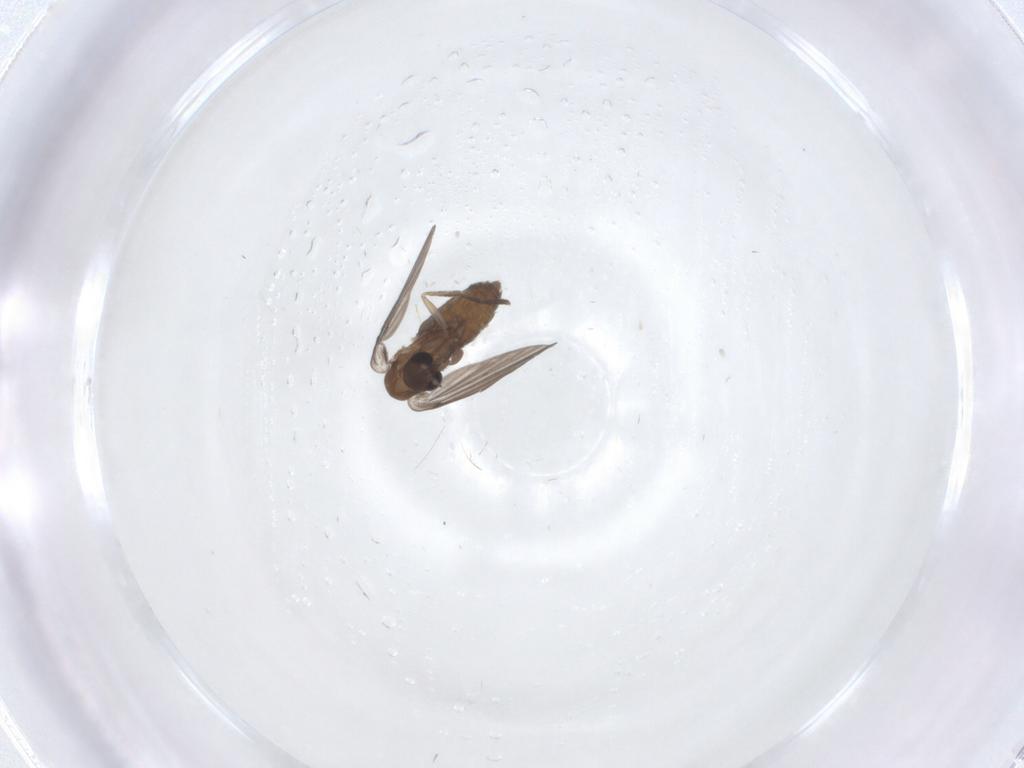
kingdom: Animalia
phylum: Arthropoda
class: Insecta
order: Diptera
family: Psychodidae
